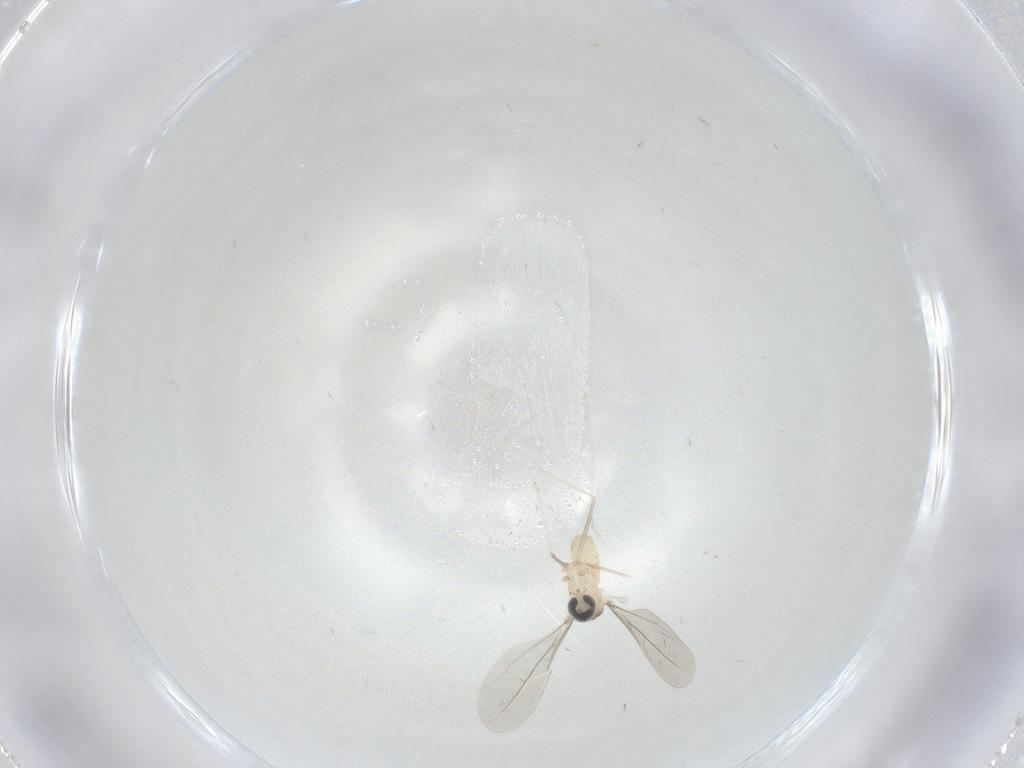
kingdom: Animalia
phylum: Arthropoda
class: Insecta
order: Diptera
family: Cecidomyiidae
